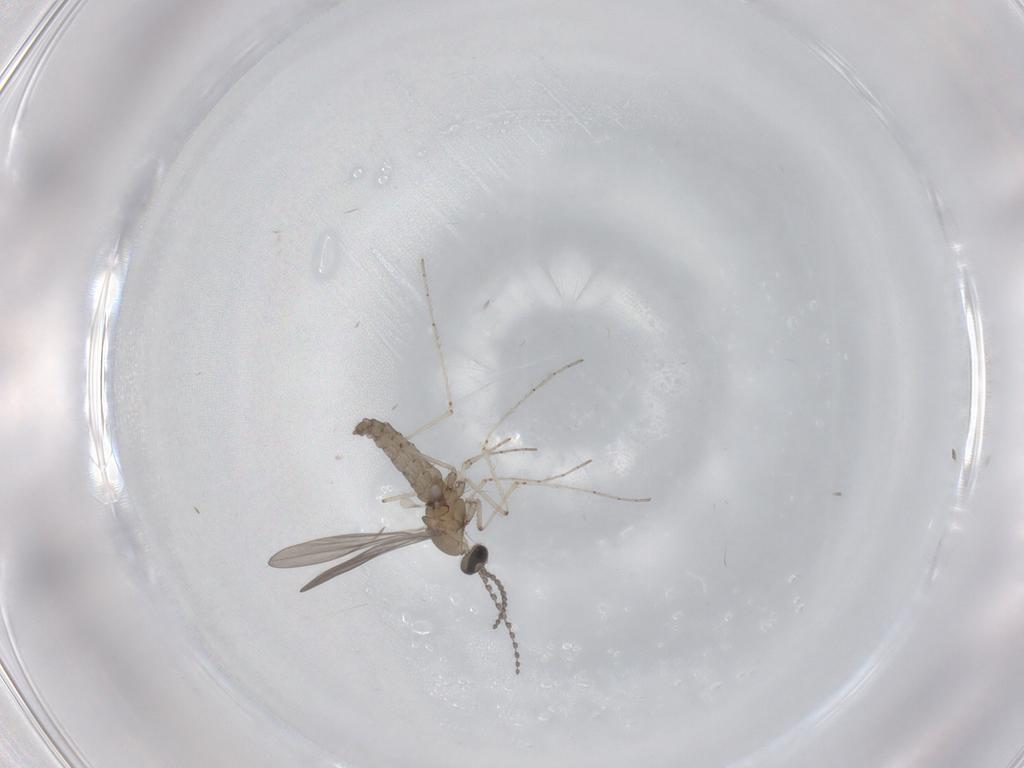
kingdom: Animalia
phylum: Arthropoda
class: Insecta
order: Diptera
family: Cecidomyiidae
